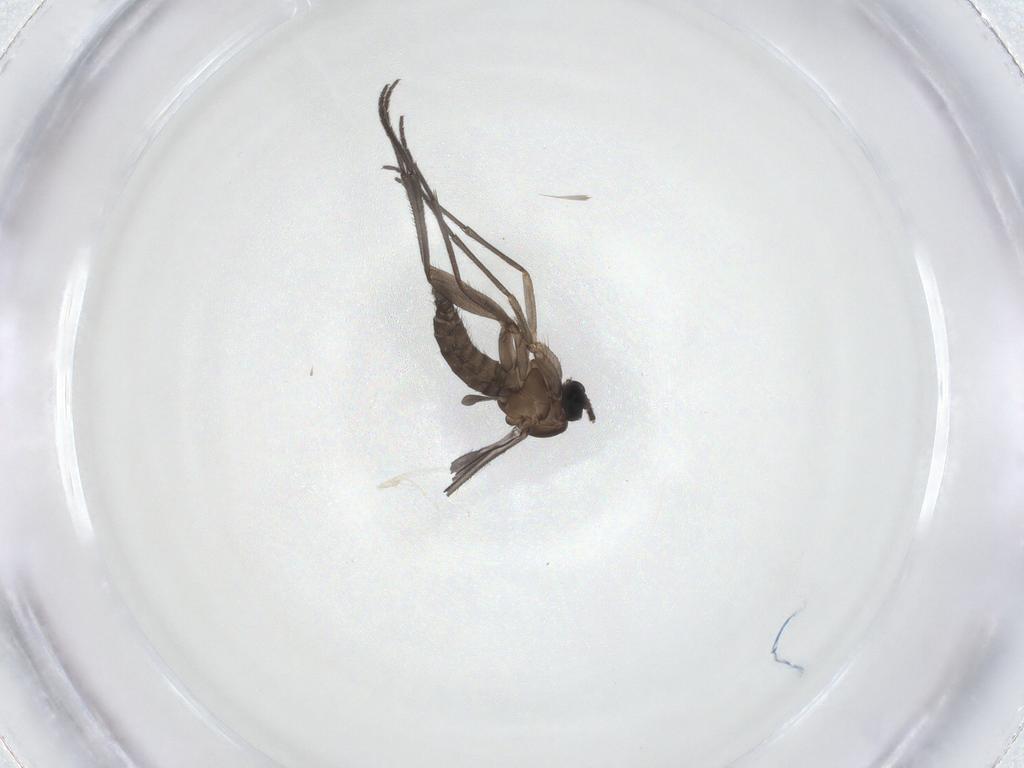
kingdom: Animalia
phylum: Arthropoda
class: Insecta
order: Diptera
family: Sciaridae
